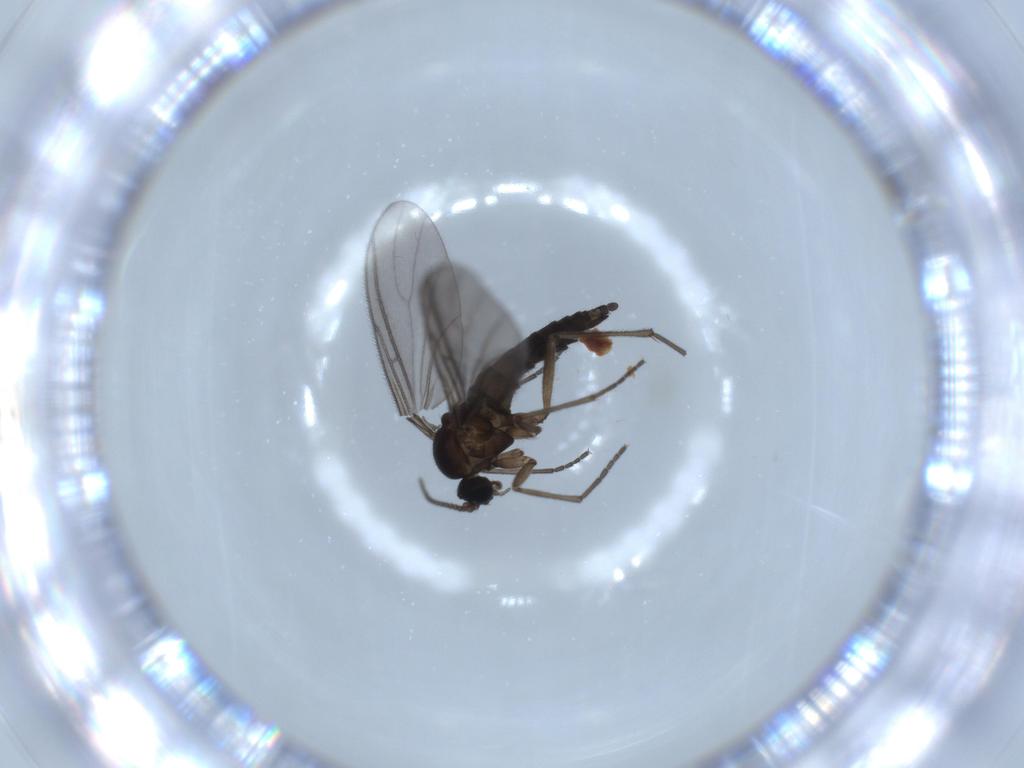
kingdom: Animalia
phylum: Arthropoda
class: Insecta
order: Diptera
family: Sciaridae
